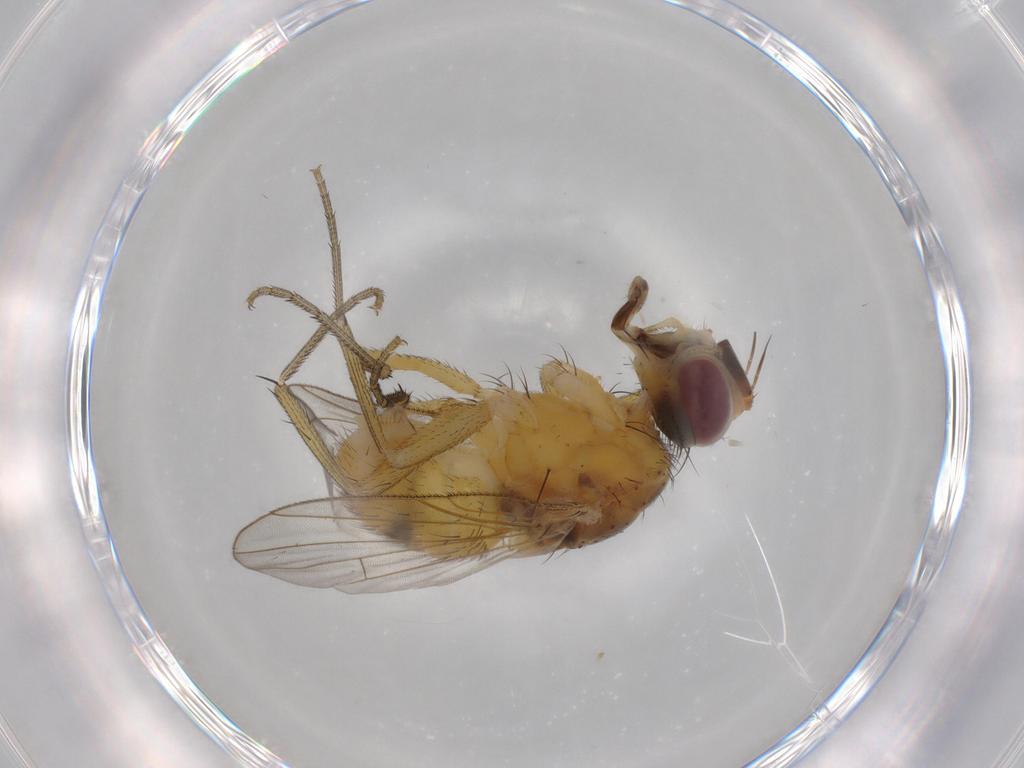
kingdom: Animalia
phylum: Arthropoda
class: Insecta
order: Diptera
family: Muscidae
